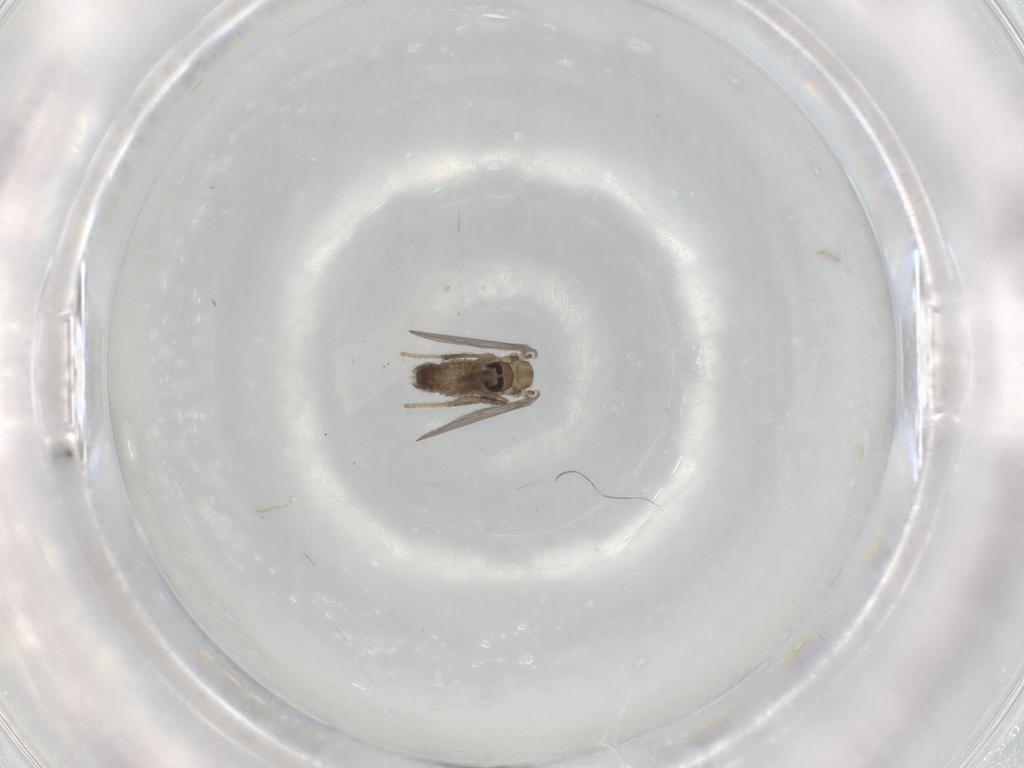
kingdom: Animalia
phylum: Arthropoda
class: Insecta
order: Diptera
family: Psychodidae
